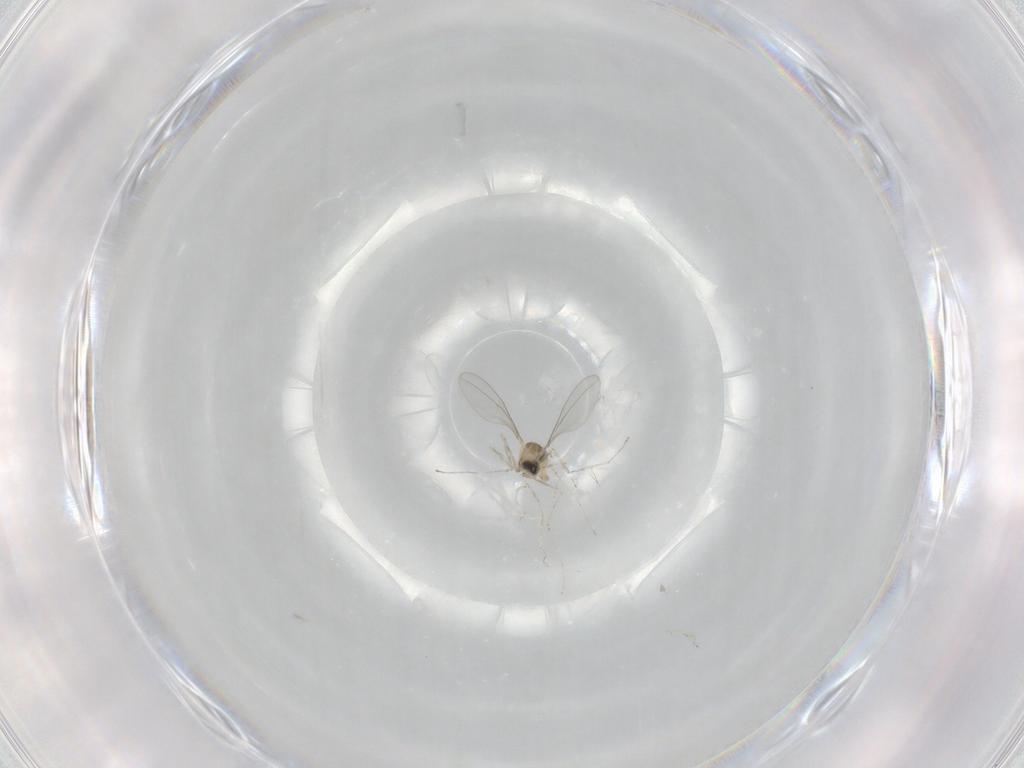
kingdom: Animalia
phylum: Arthropoda
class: Insecta
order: Diptera
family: Cecidomyiidae
